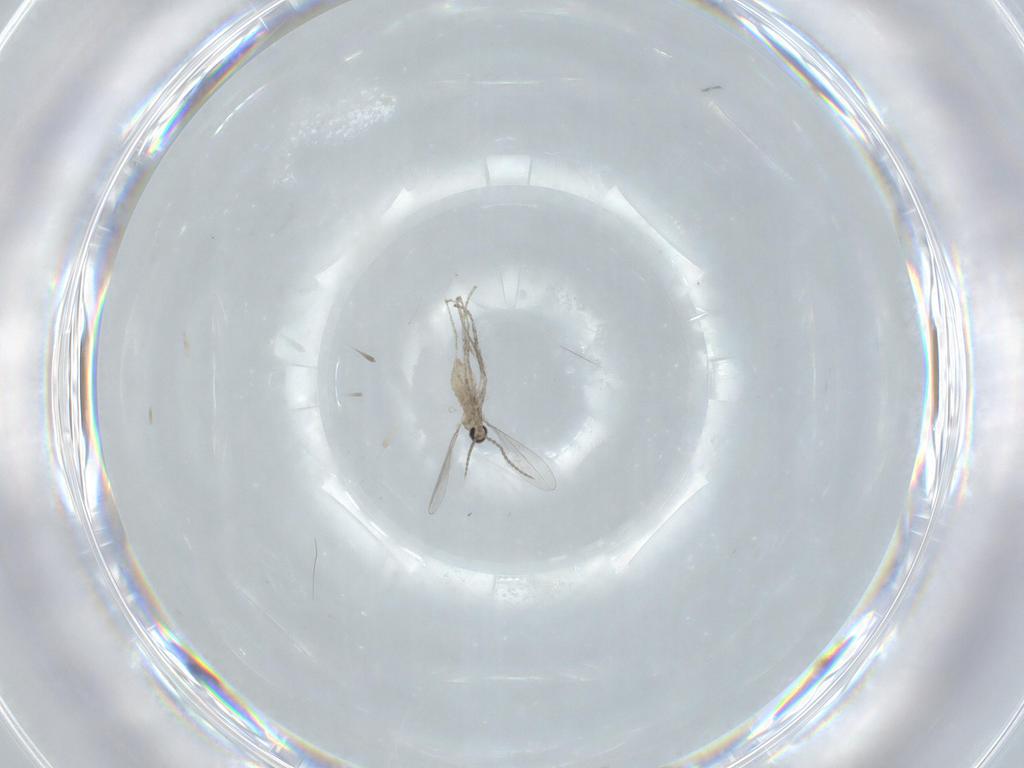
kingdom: Animalia
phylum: Arthropoda
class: Insecta
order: Diptera
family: Cecidomyiidae
